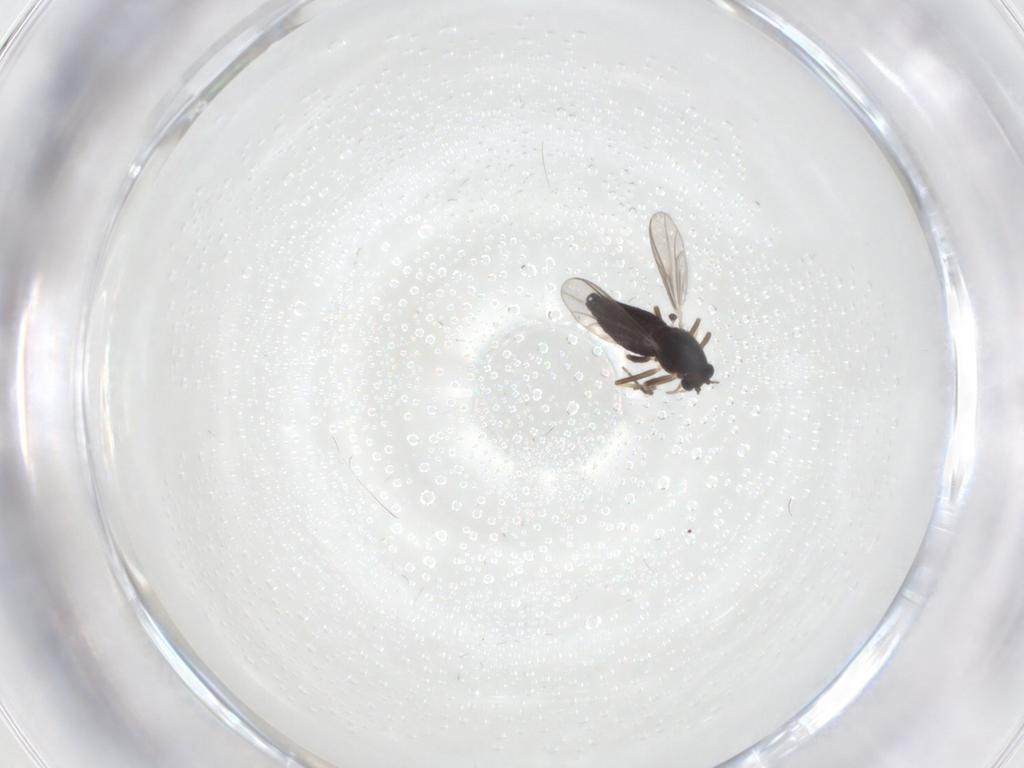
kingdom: Animalia
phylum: Arthropoda
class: Insecta
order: Diptera
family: Chironomidae
